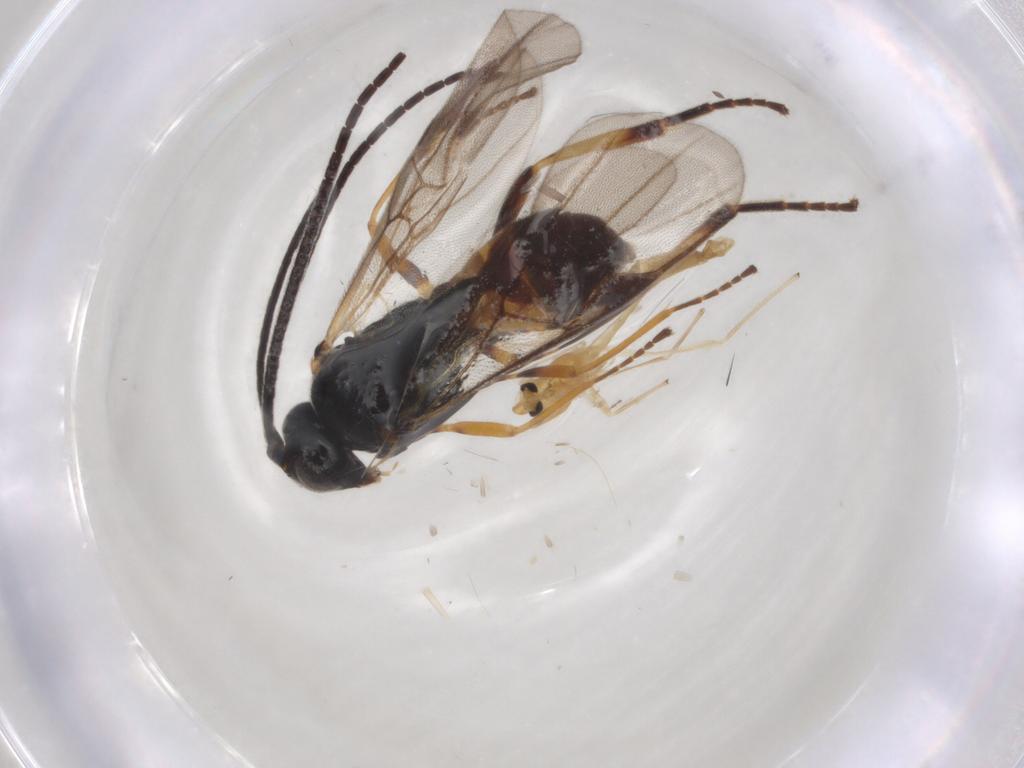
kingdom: Animalia
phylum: Arthropoda
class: Insecta
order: Hymenoptera
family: Braconidae
